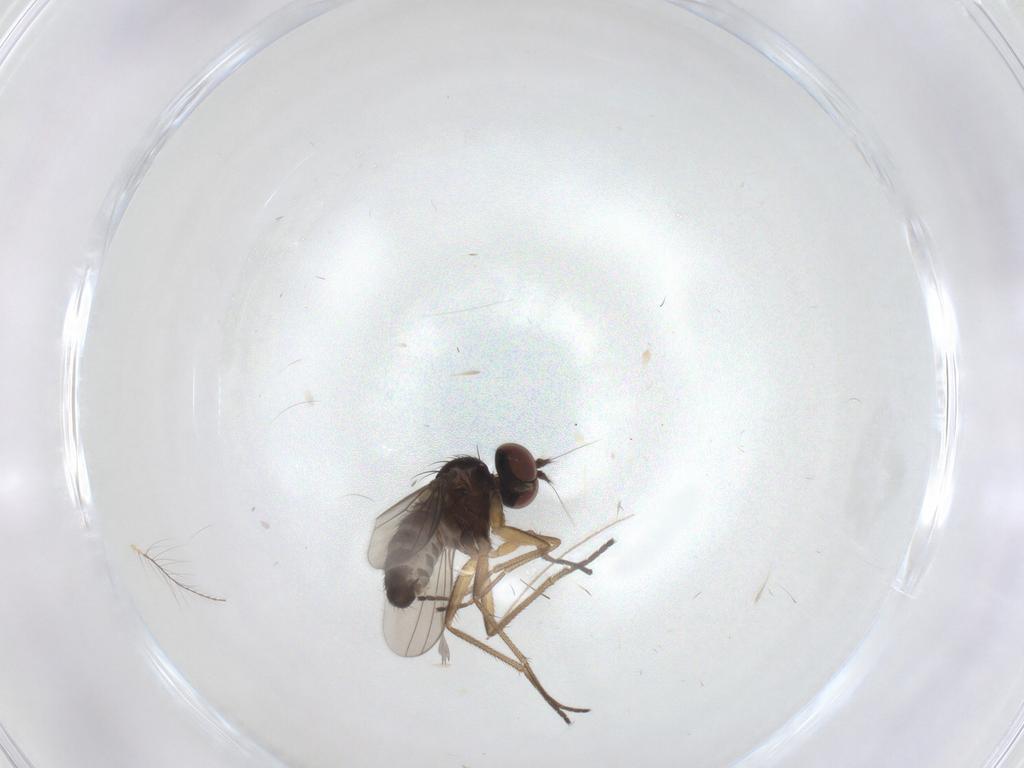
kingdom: Animalia
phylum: Arthropoda
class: Insecta
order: Diptera
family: Dolichopodidae
